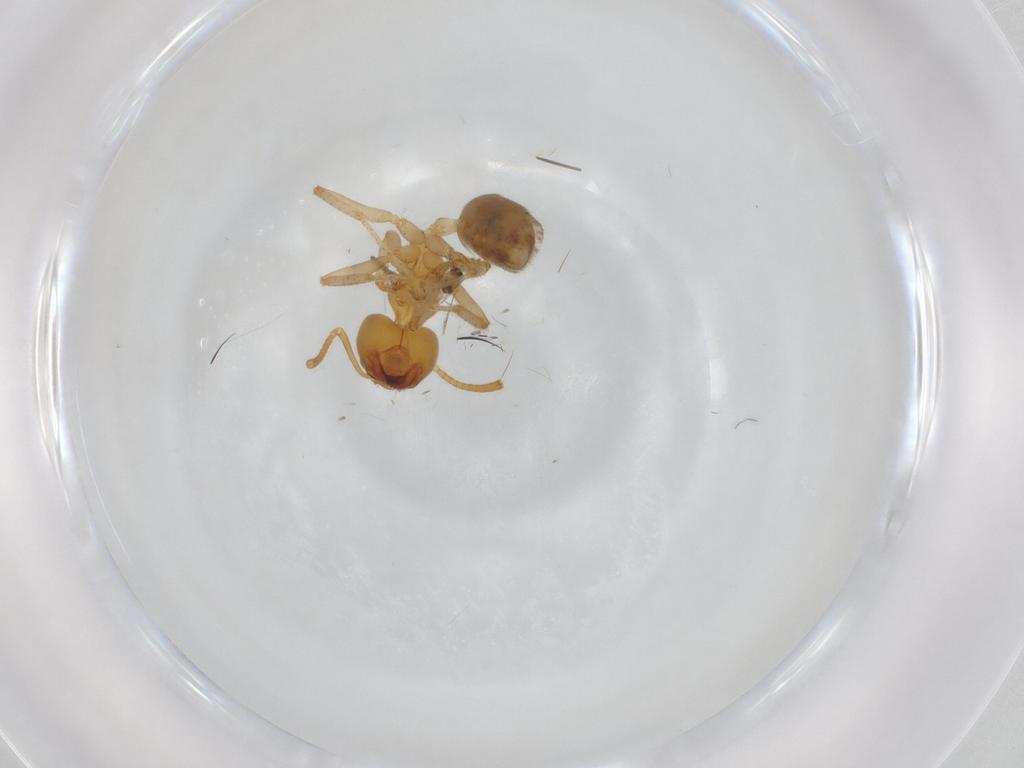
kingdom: Animalia
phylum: Arthropoda
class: Insecta
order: Hymenoptera
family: Formicidae
